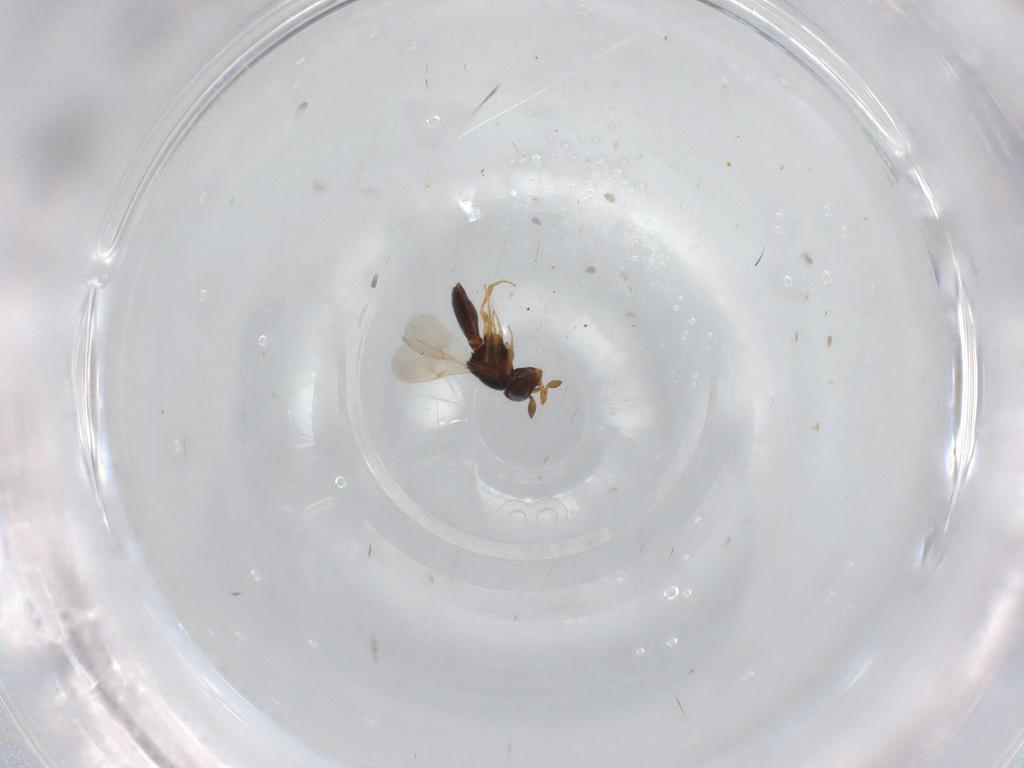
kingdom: Animalia
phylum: Arthropoda
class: Insecta
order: Hymenoptera
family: Scelionidae
